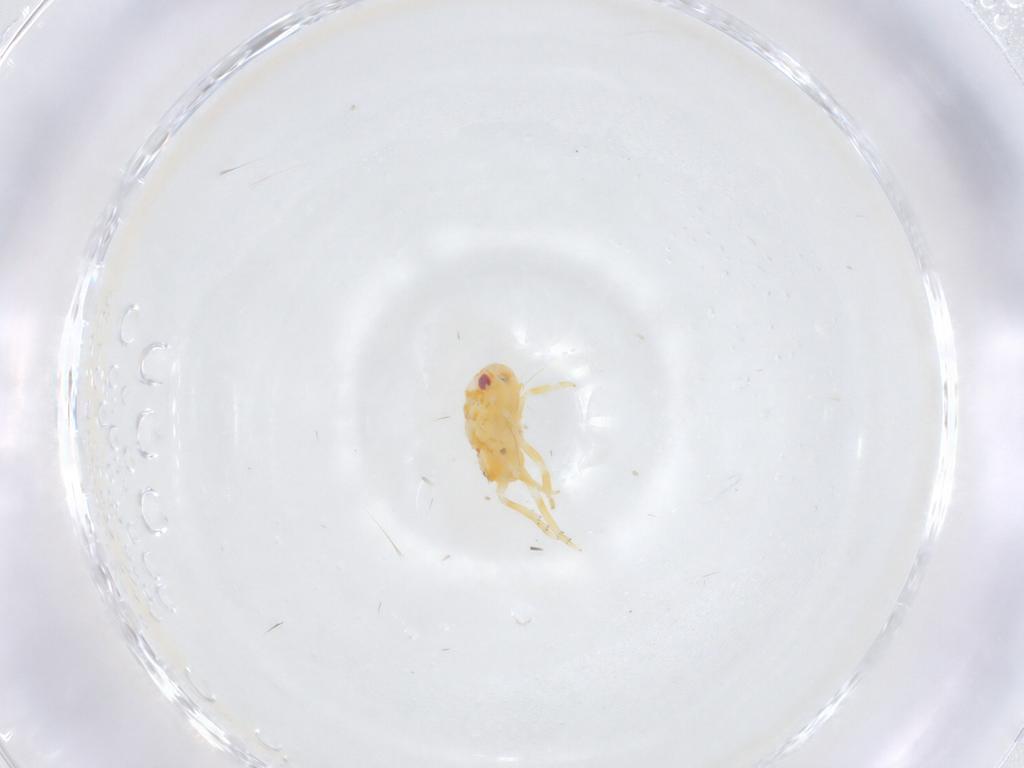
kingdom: Animalia
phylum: Arthropoda
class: Insecta
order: Hemiptera
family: Flatidae
